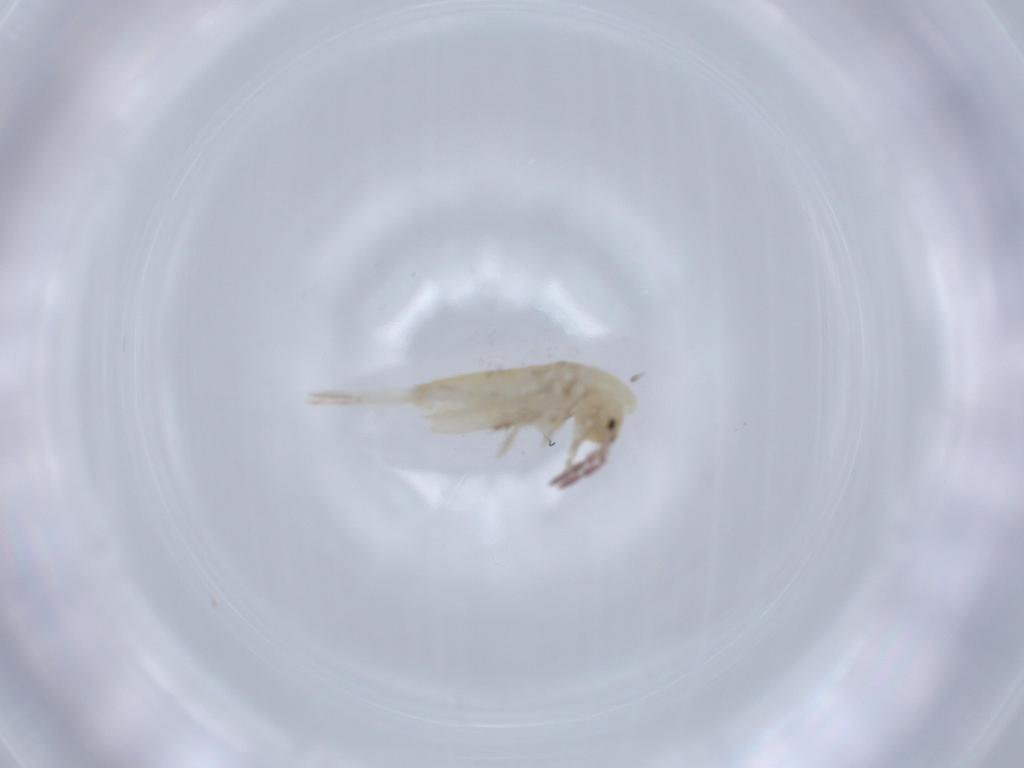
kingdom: Animalia
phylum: Arthropoda
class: Collembola
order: Entomobryomorpha
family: Entomobryidae
